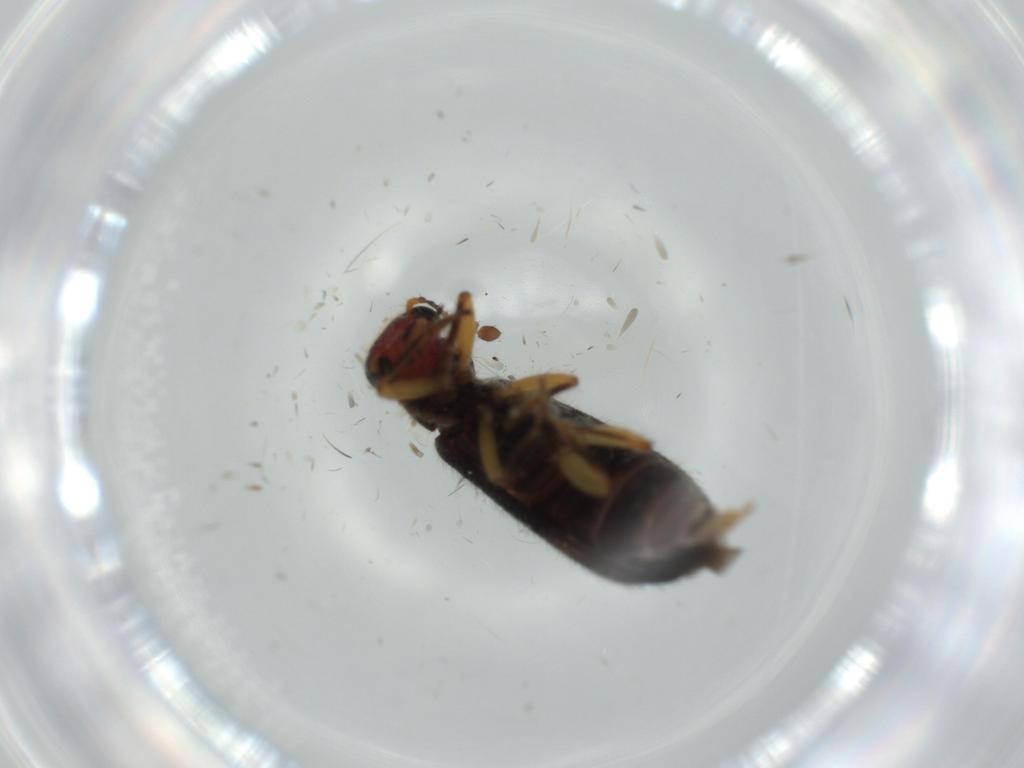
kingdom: Animalia
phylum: Arthropoda
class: Insecta
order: Coleoptera
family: Cleridae
